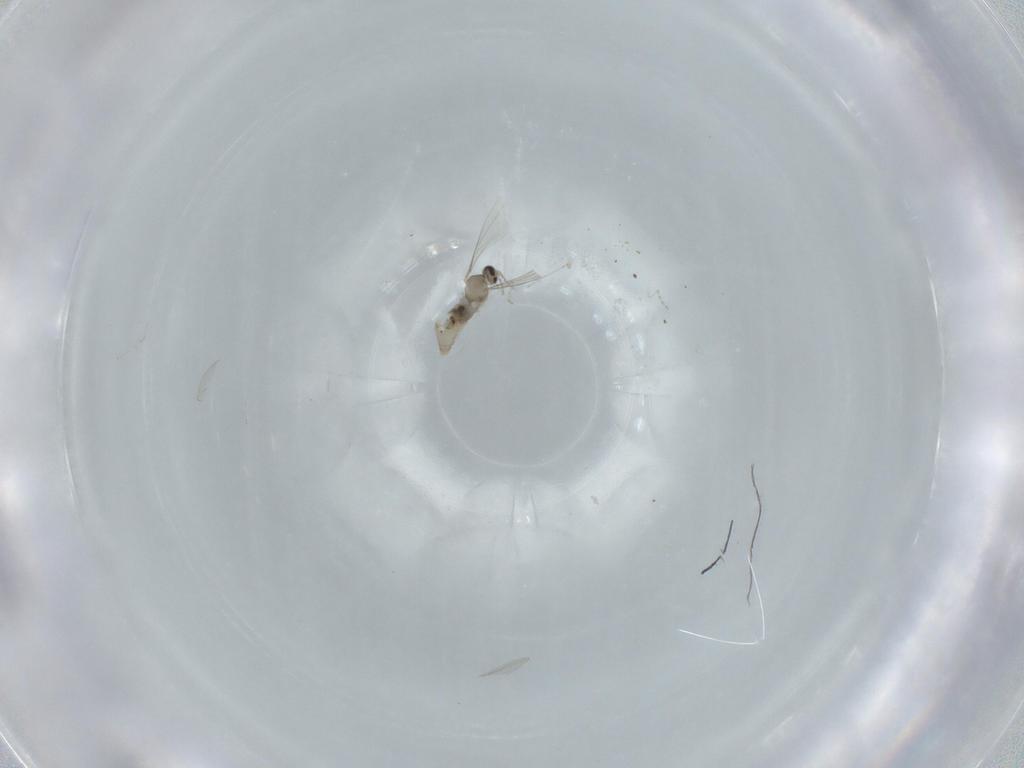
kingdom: Animalia
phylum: Arthropoda
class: Insecta
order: Diptera
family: Cecidomyiidae
